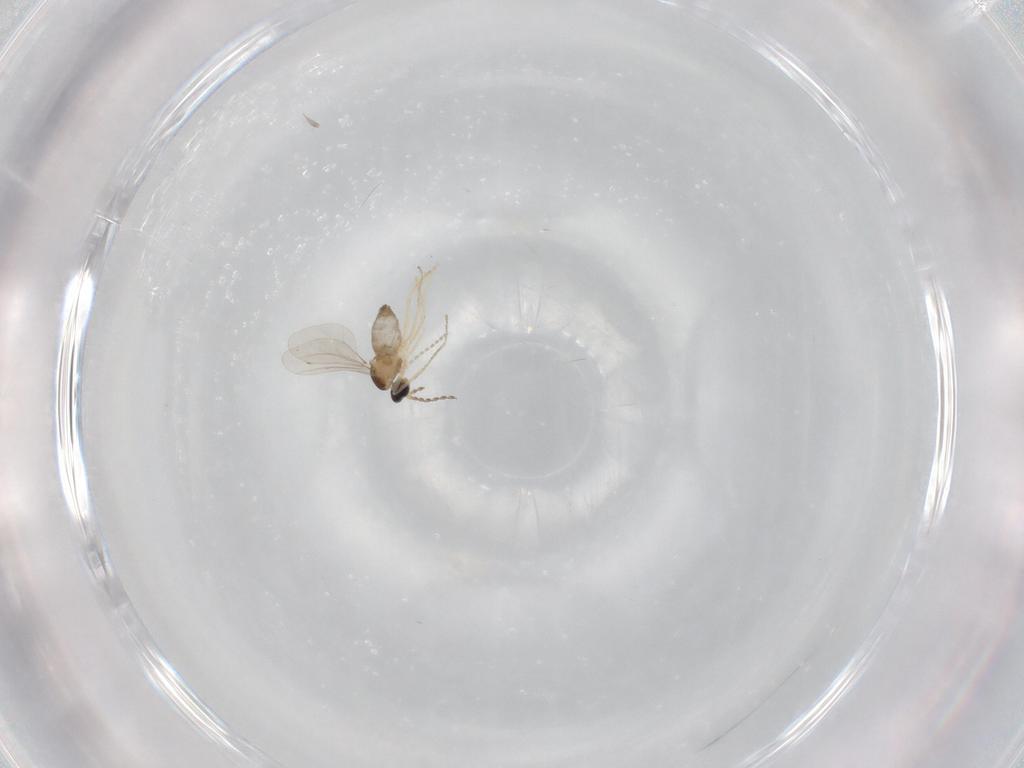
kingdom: Animalia
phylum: Arthropoda
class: Insecta
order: Diptera
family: Cecidomyiidae
